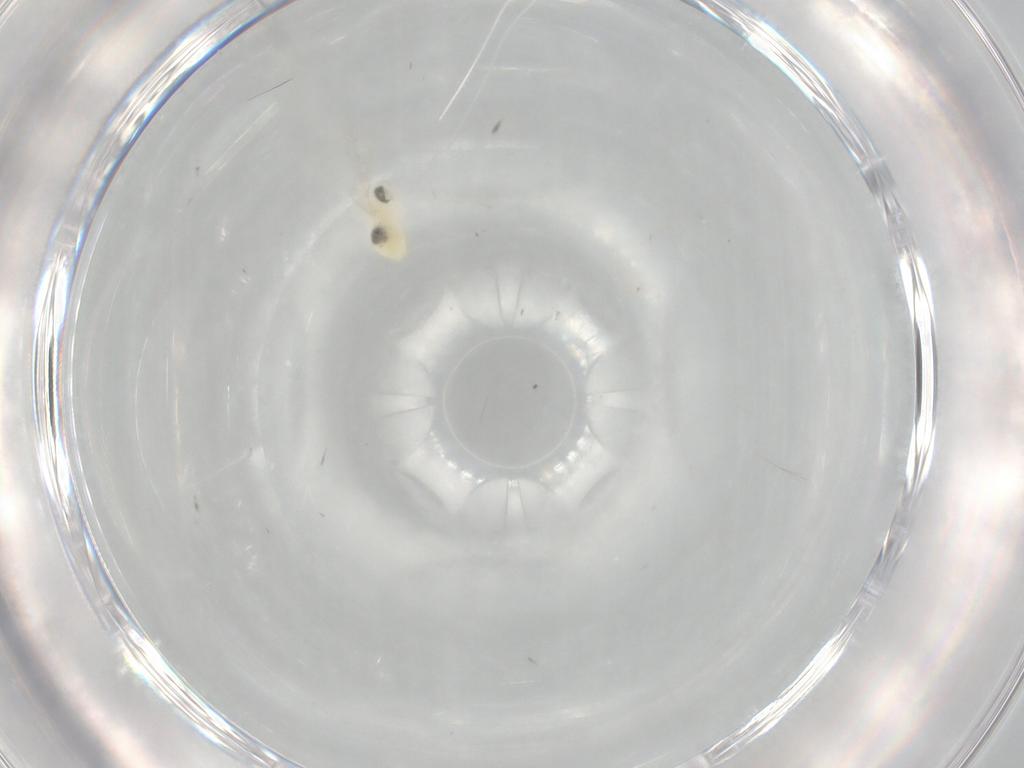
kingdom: Animalia
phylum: Arthropoda
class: Insecta
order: Diptera
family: Cecidomyiidae
